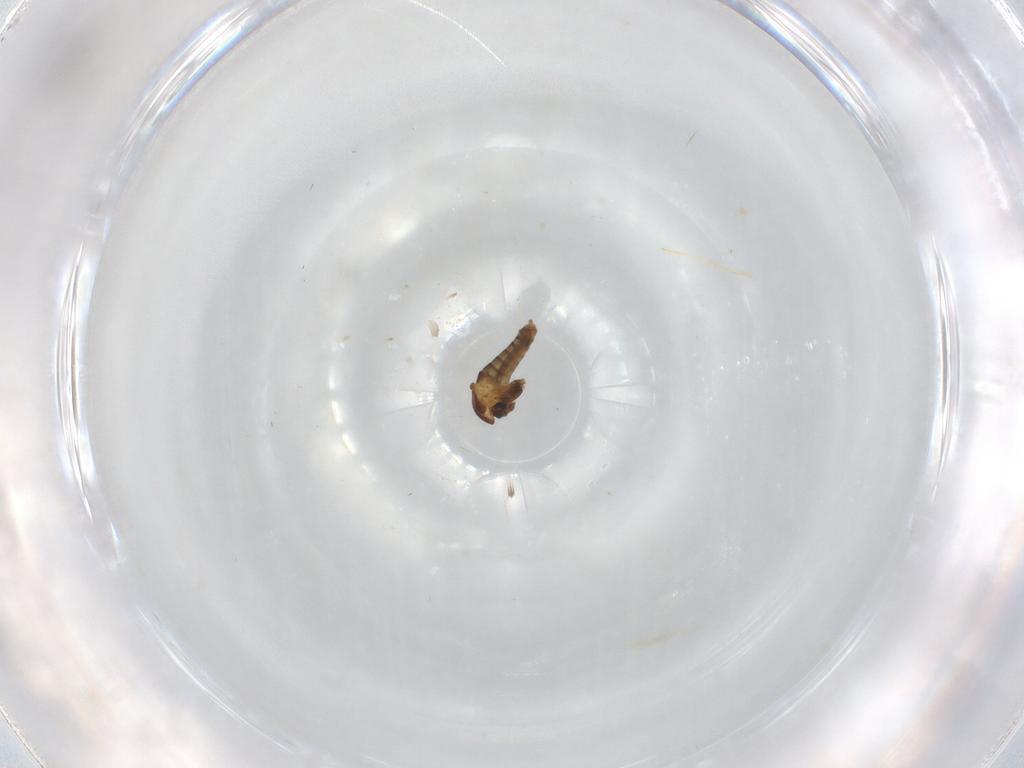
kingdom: Animalia
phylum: Arthropoda
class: Insecta
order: Diptera
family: Chironomidae
